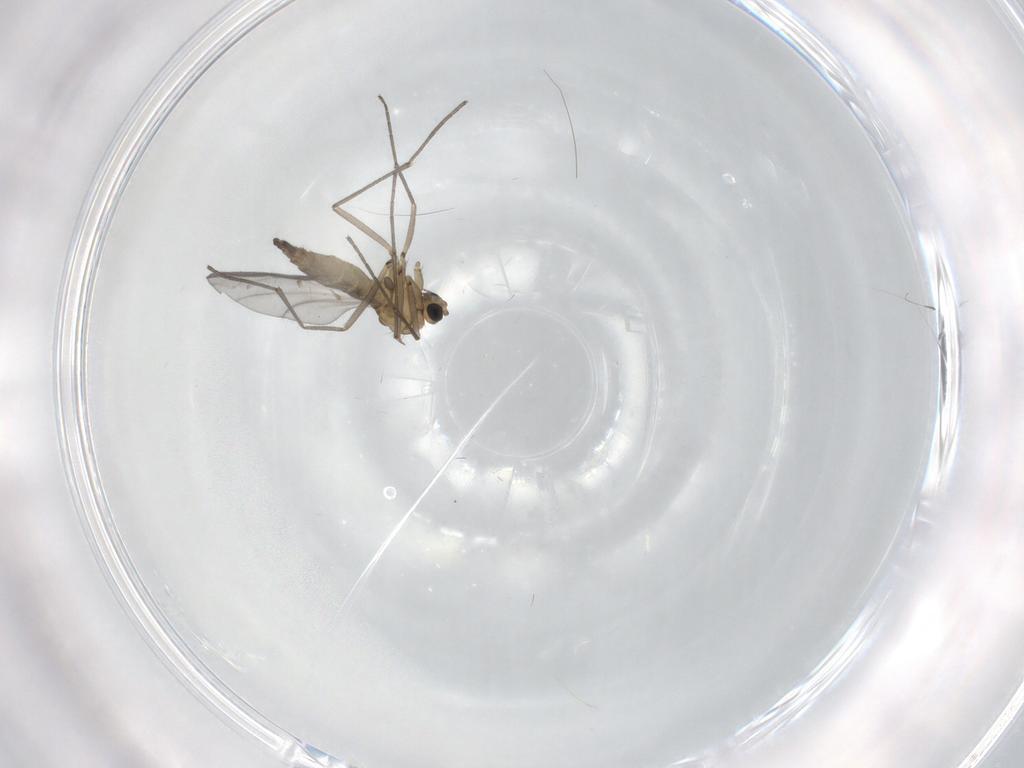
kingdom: Animalia
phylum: Arthropoda
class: Insecta
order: Diptera
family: Sciaridae
